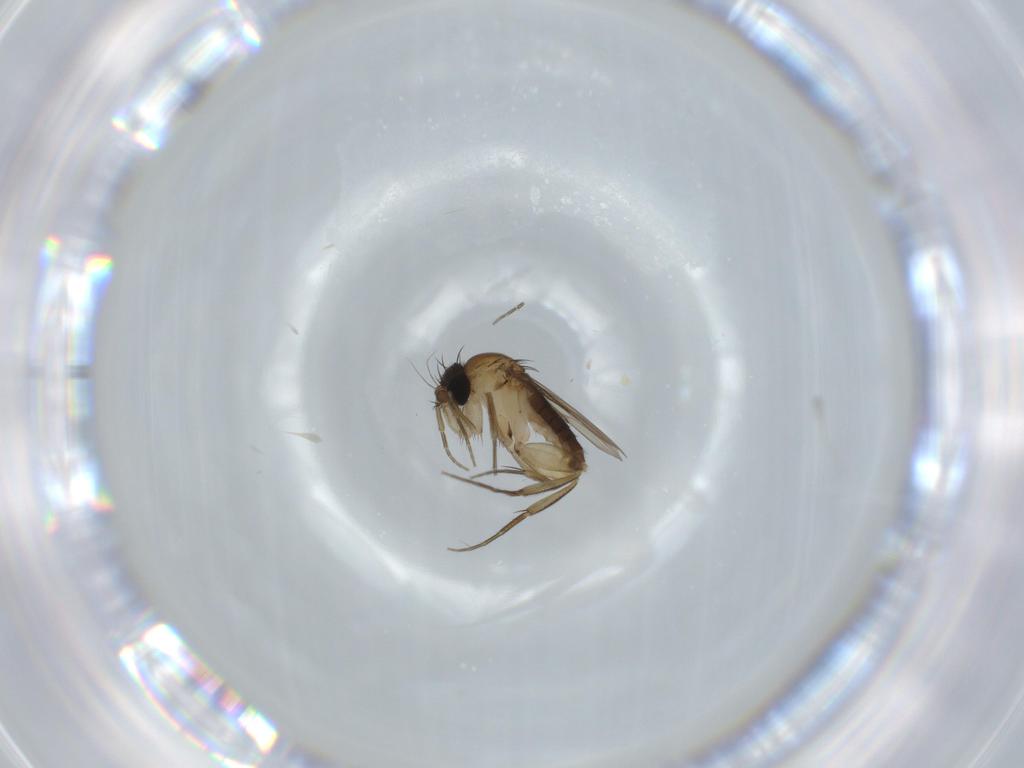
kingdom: Animalia
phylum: Arthropoda
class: Insecta
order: Diptera
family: Phoridae
